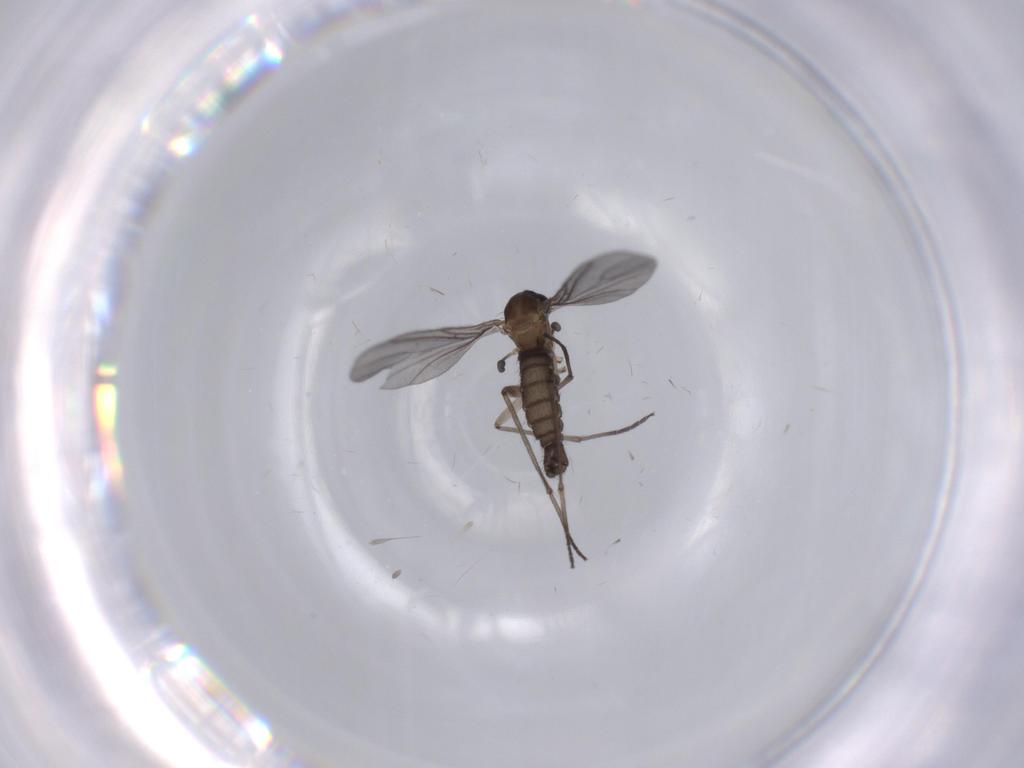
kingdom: Animalia
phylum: Arthropoda
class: Insecta
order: Diptera
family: Sciaridae
